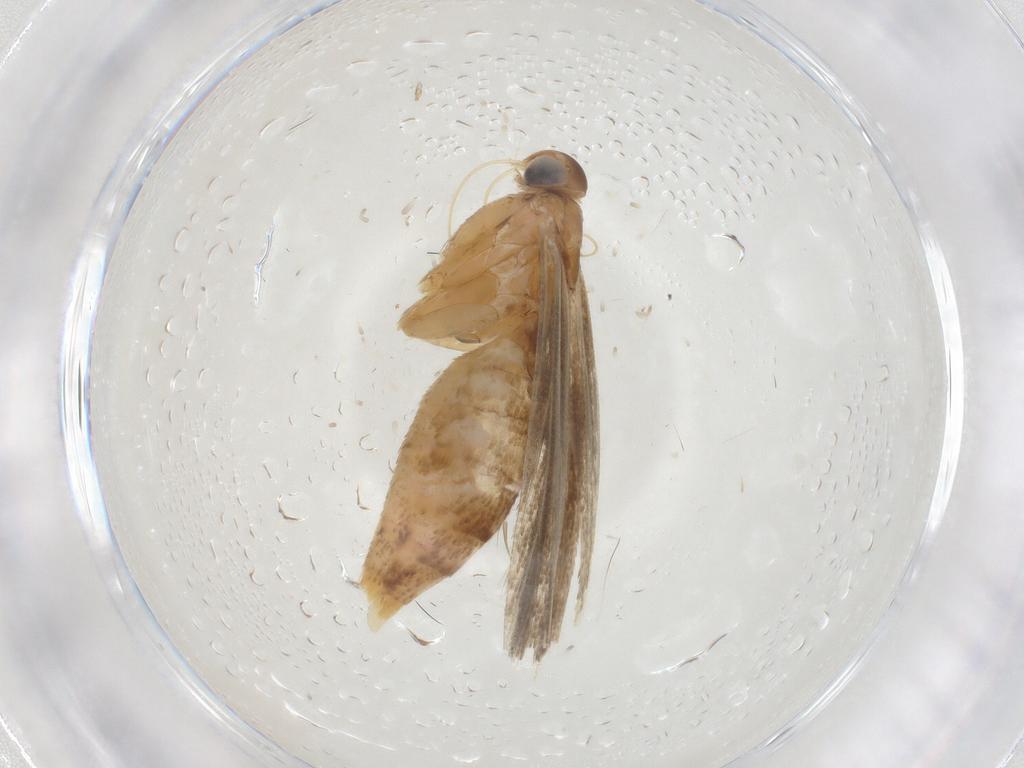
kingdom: Animalia
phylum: Arthropoda
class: Insecta
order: Lepidoptera
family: Gelechiidae
